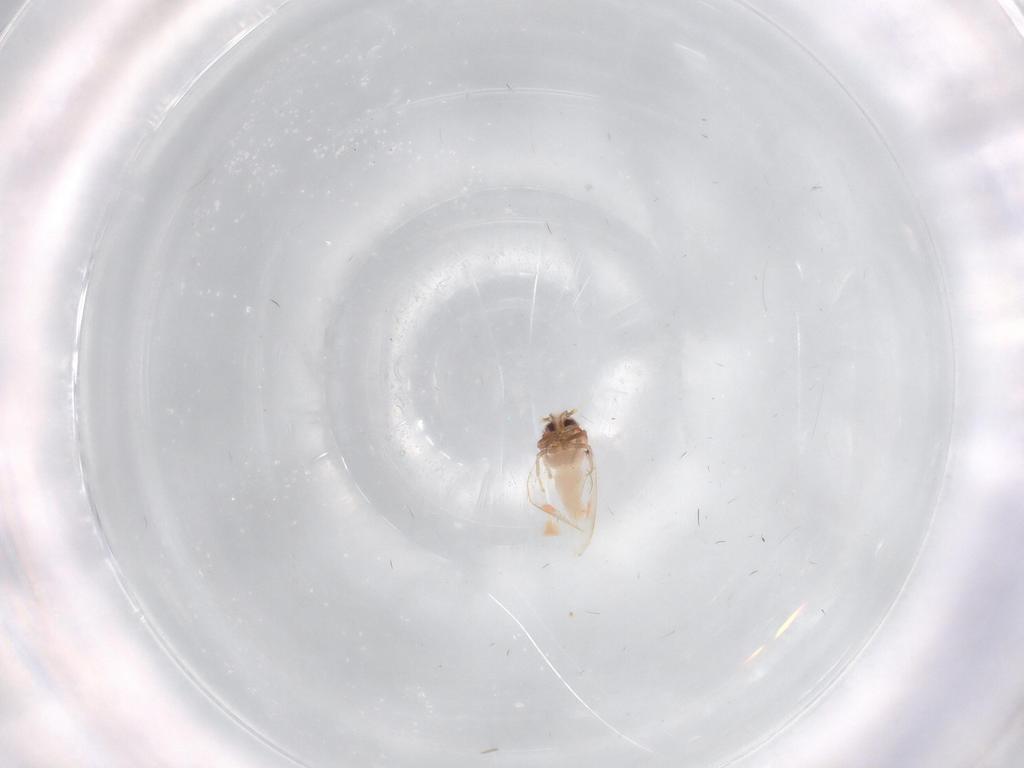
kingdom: Animalia
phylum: Arthropoda
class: Insecta
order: Hemiptera
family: Aleyrodidae
